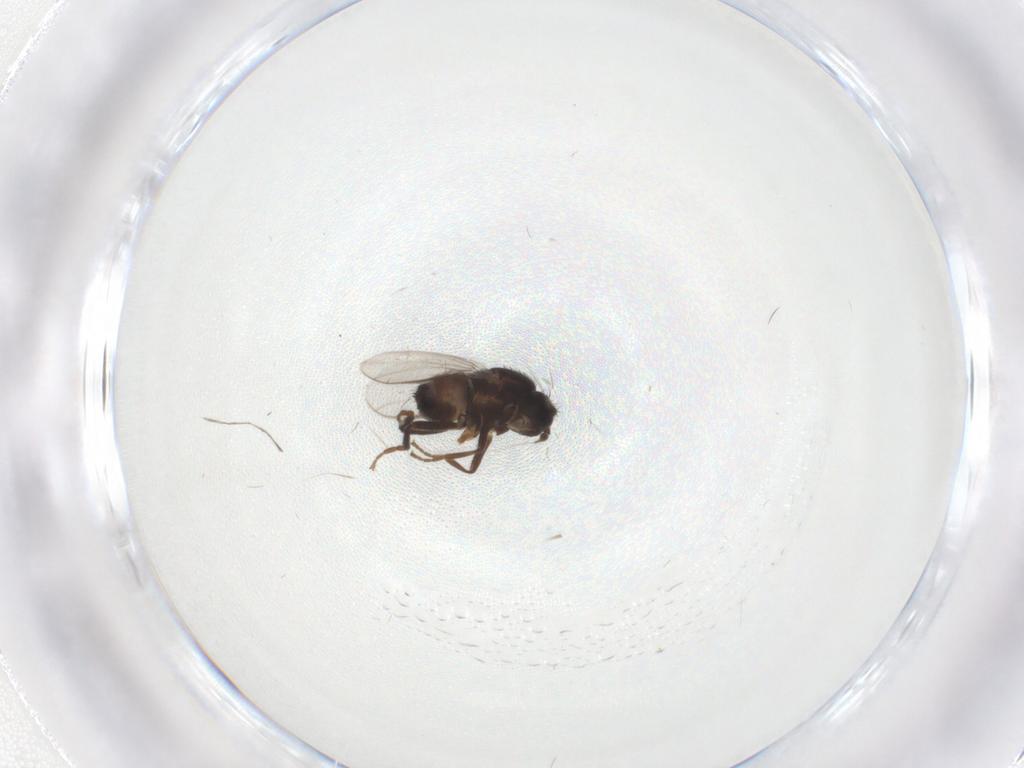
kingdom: Animalia
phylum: Arthropoda
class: Insecta
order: Diptera
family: Sphaeroceridae
